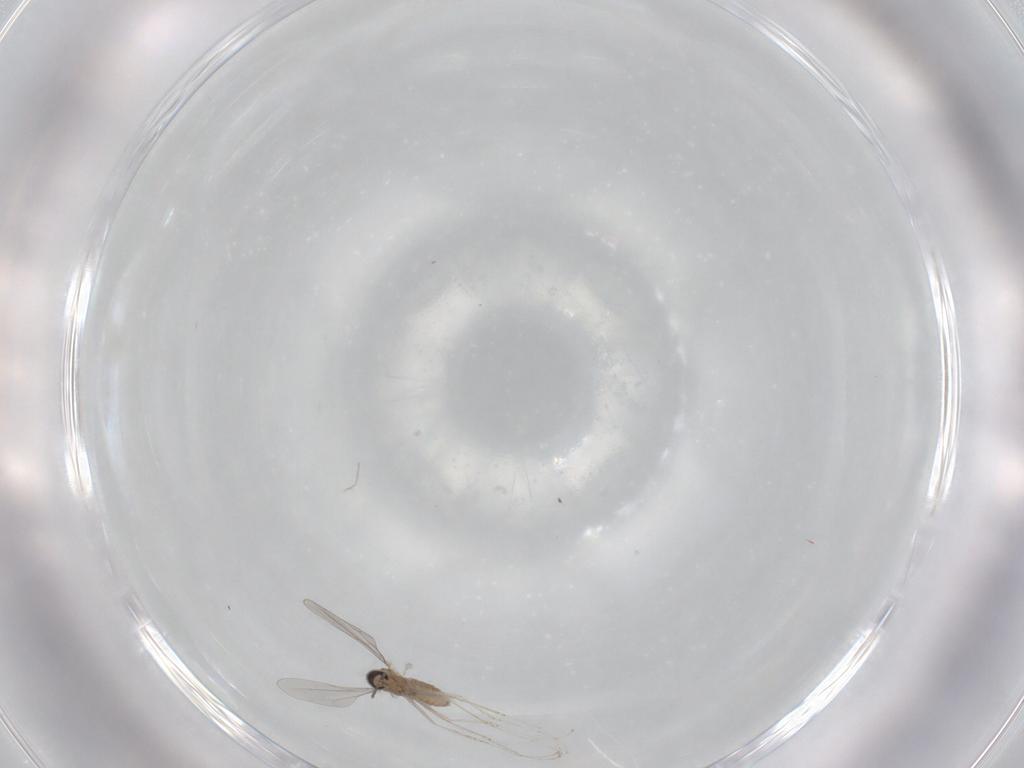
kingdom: Animalia
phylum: Arthropoda
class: Insecta
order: Diptera
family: Cecidomyiidae
